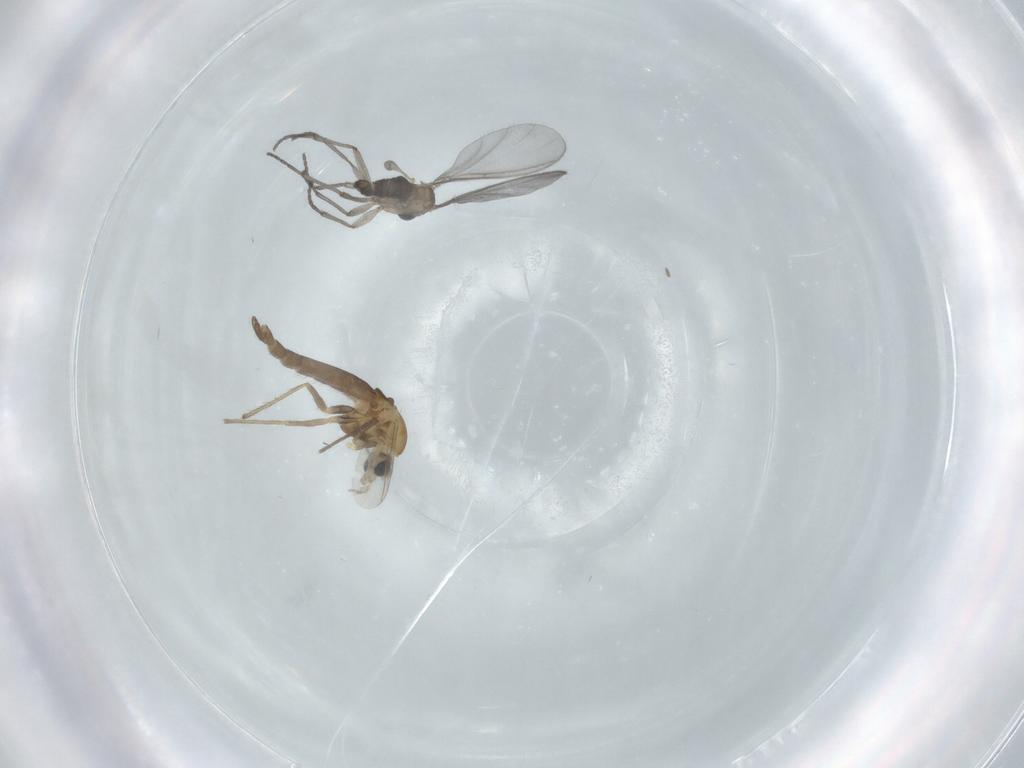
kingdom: Animalia
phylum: Arthropoda
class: Insecta
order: Diptera
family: Chironomidae
